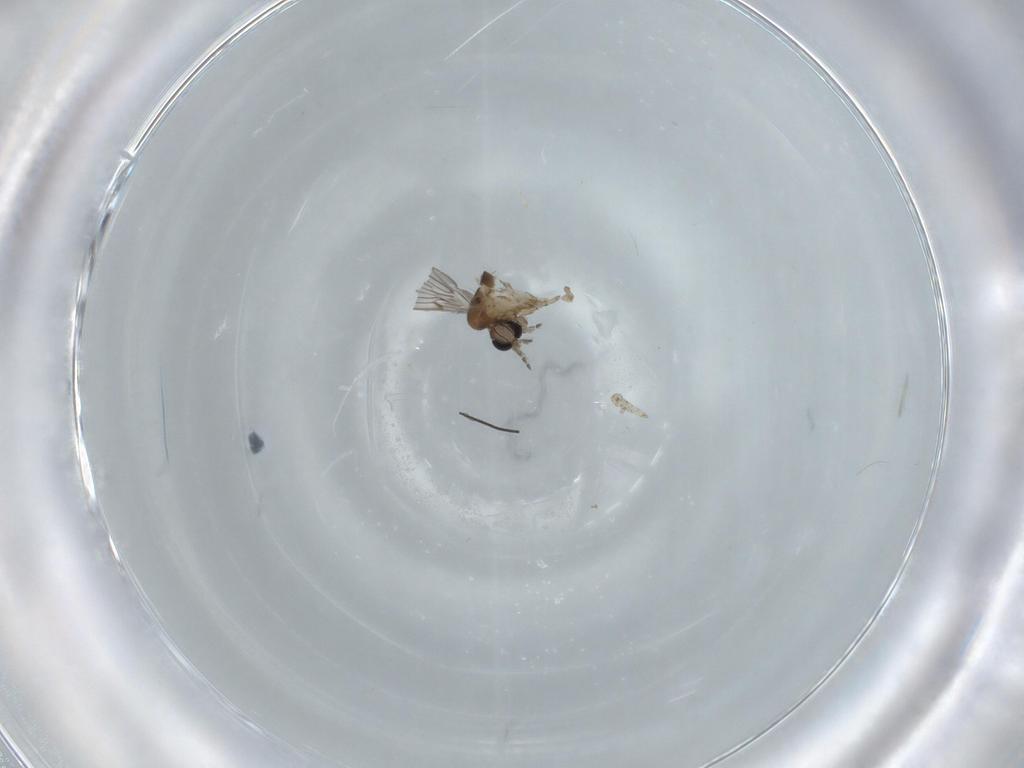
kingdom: Animalia
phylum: Arthropoda
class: Insecta
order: Diptera
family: Psychodidae
